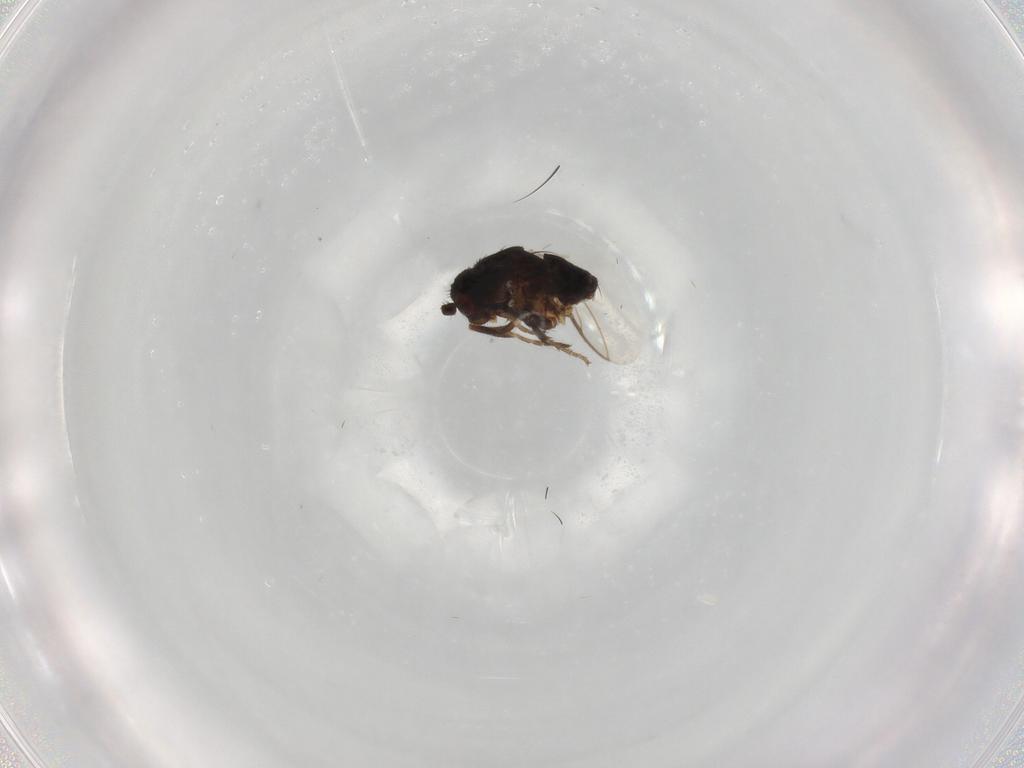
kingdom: Animalia
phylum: Arthropoda
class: Insecta
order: Diptera
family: Sphaeroceridae
